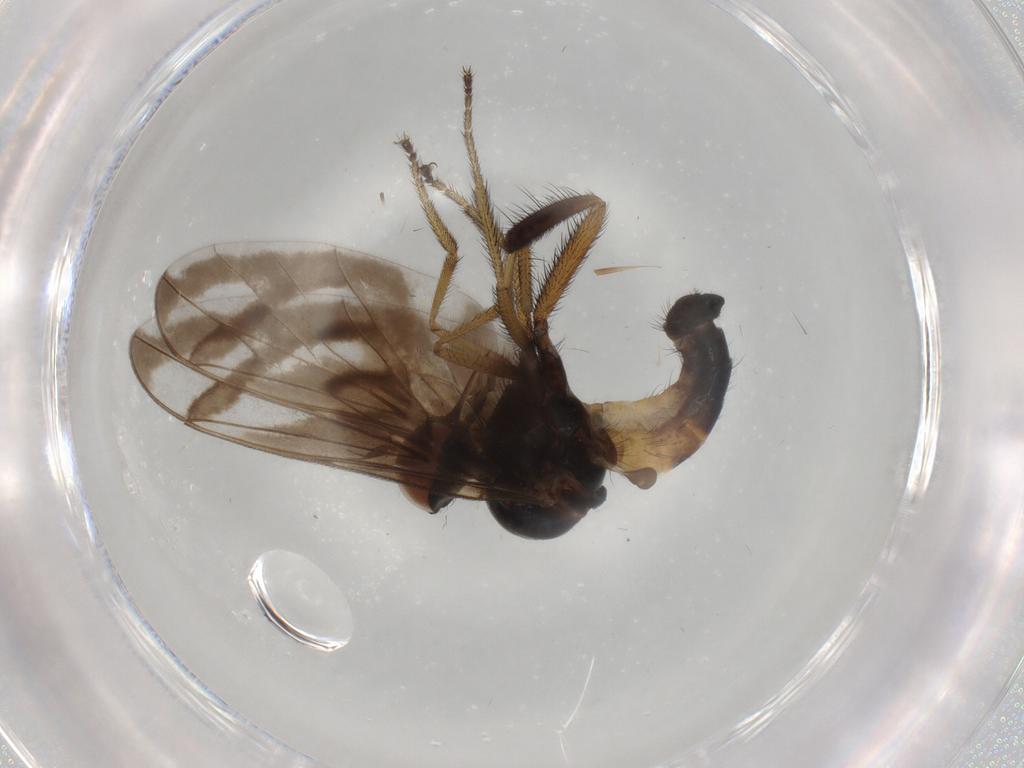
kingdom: Animalia
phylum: Arthropoda
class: Insecta
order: Diptera
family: Empididae
